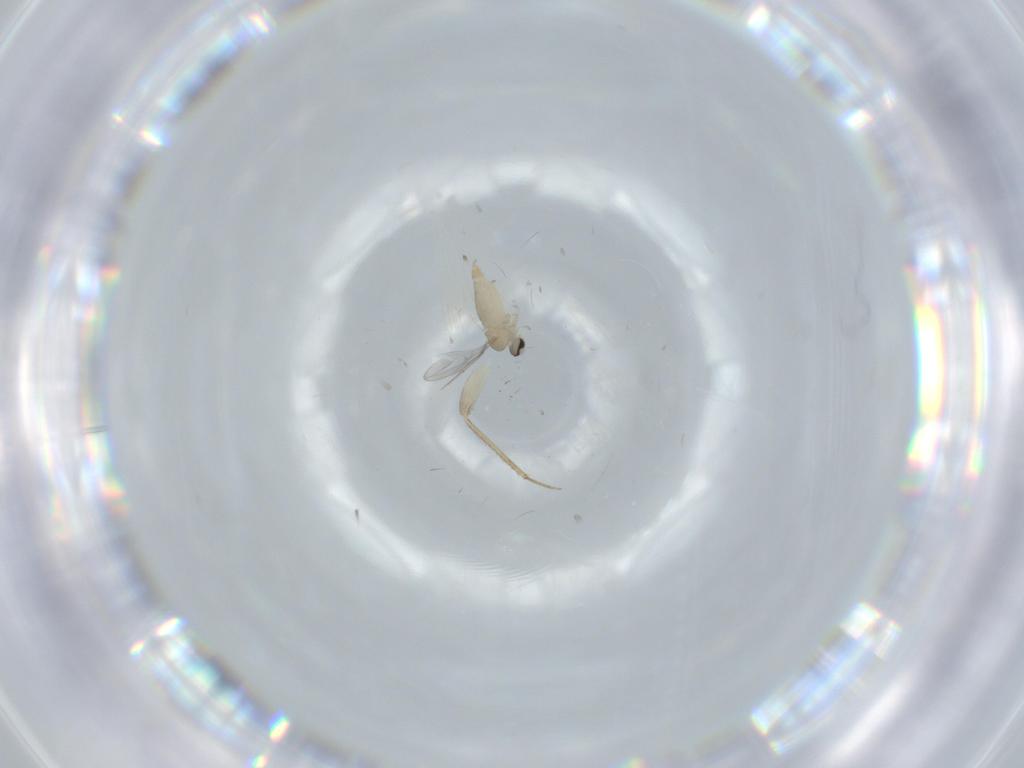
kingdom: Animalia
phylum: Arthropoda
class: Insecta
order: Diptera
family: Cecidomyiidae
